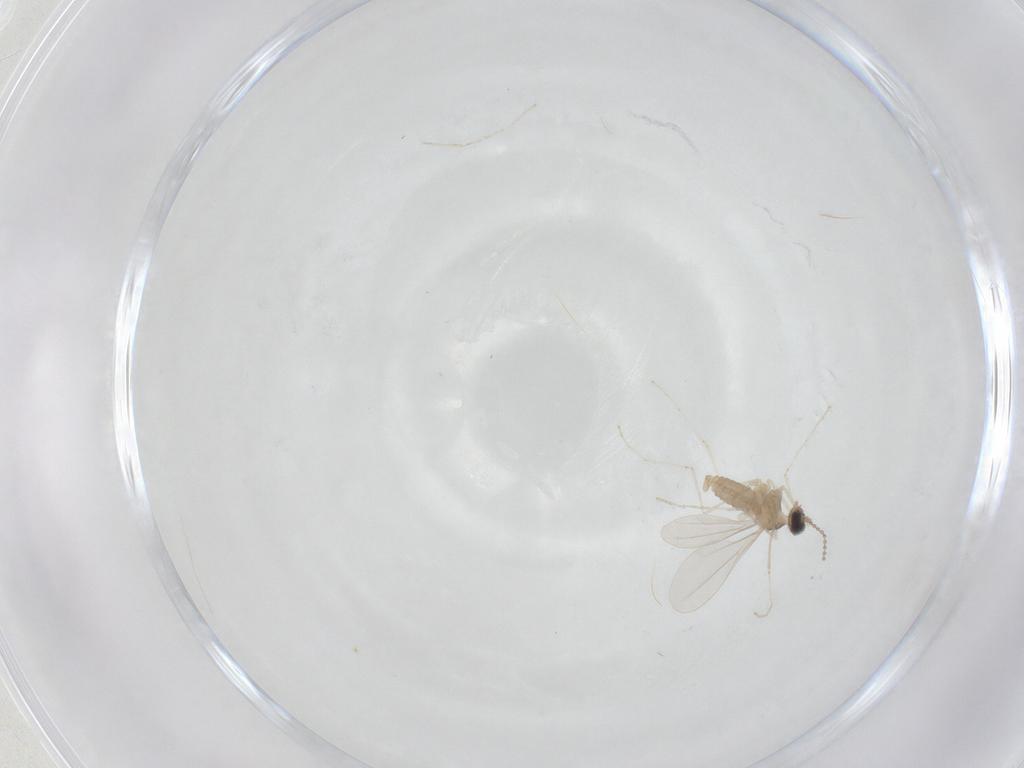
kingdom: Animalia
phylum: Arthropoda
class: Insecta
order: Diptera
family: Cecidomyiidae
